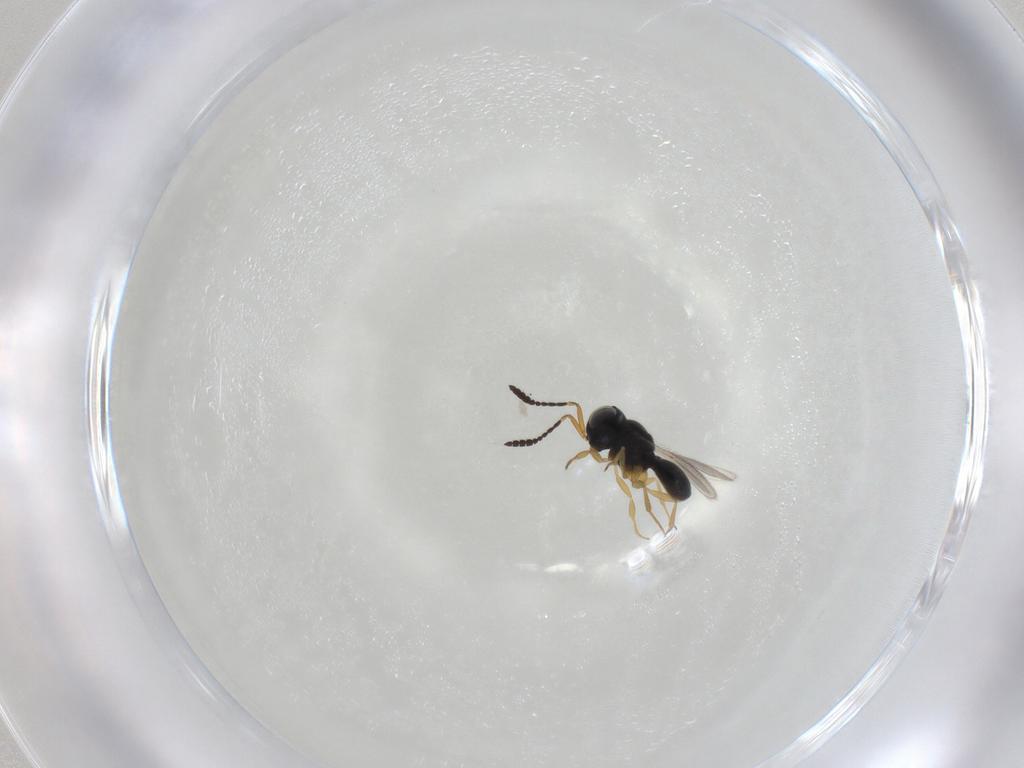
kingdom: Animalia
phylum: Arthropoda
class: Insecta
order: Hymenoptera
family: Scelionidae
